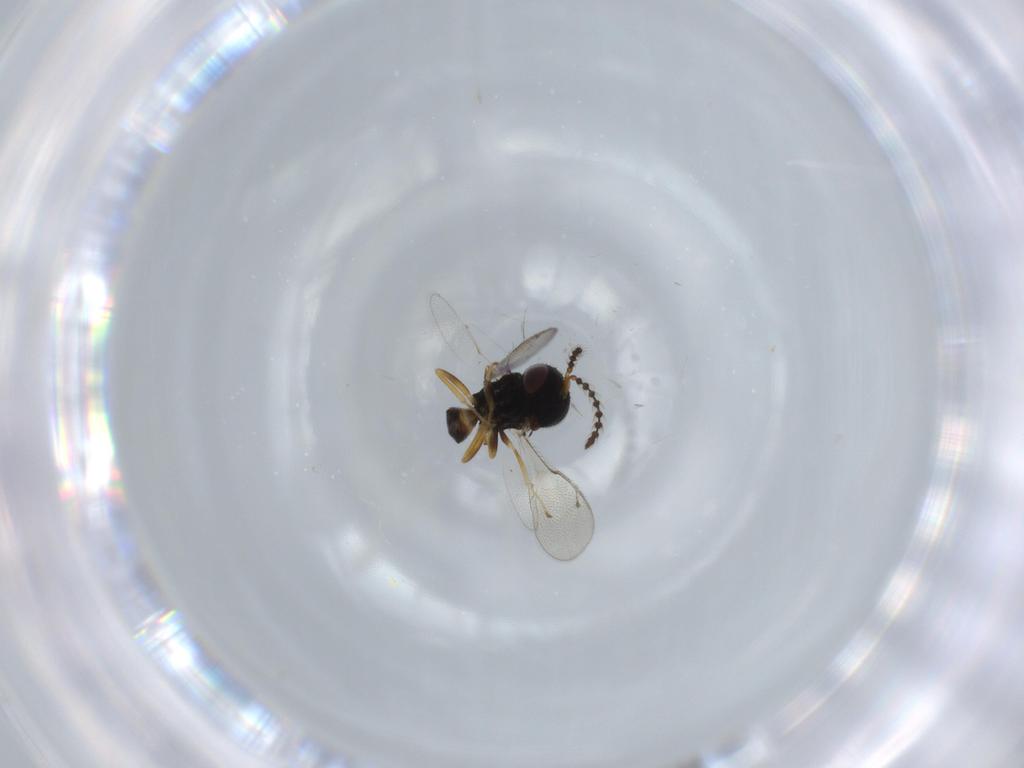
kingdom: Animalia
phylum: Arthropoda
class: Insecta
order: Hymenoptera
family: Pteromalidae
